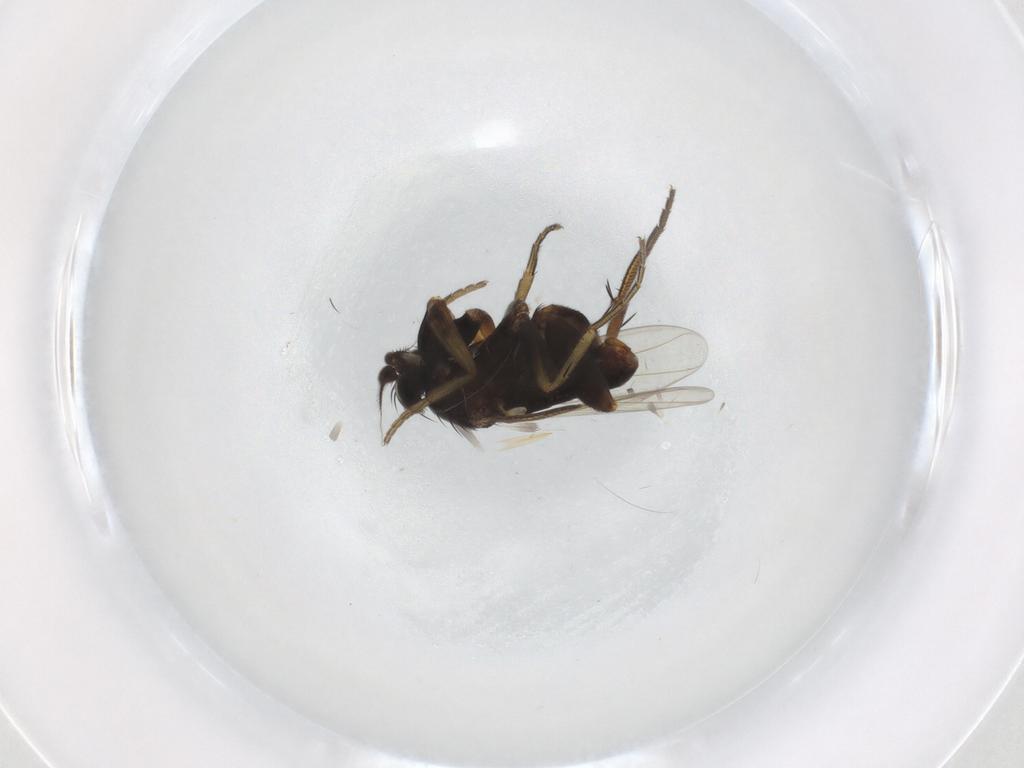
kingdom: Animalia
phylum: Arthropoda
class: Insecta
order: Diptera
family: Phoridae
